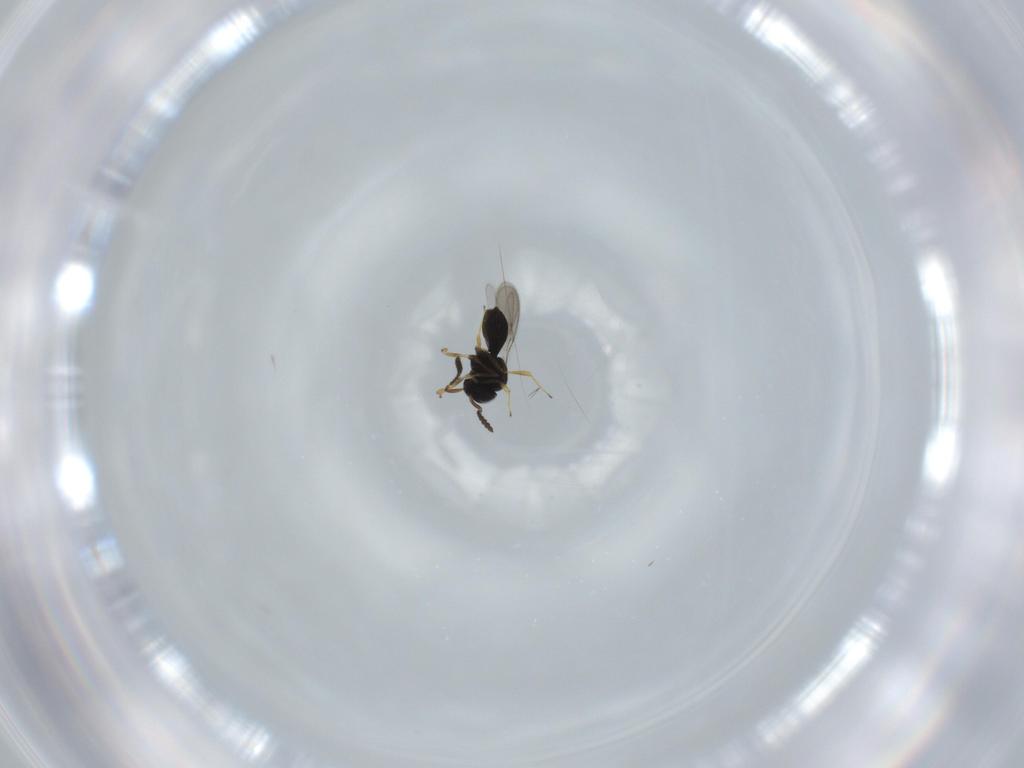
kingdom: Animalia
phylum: Arthropoda
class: Insecta
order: Hymenoptera
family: Scelionidae
